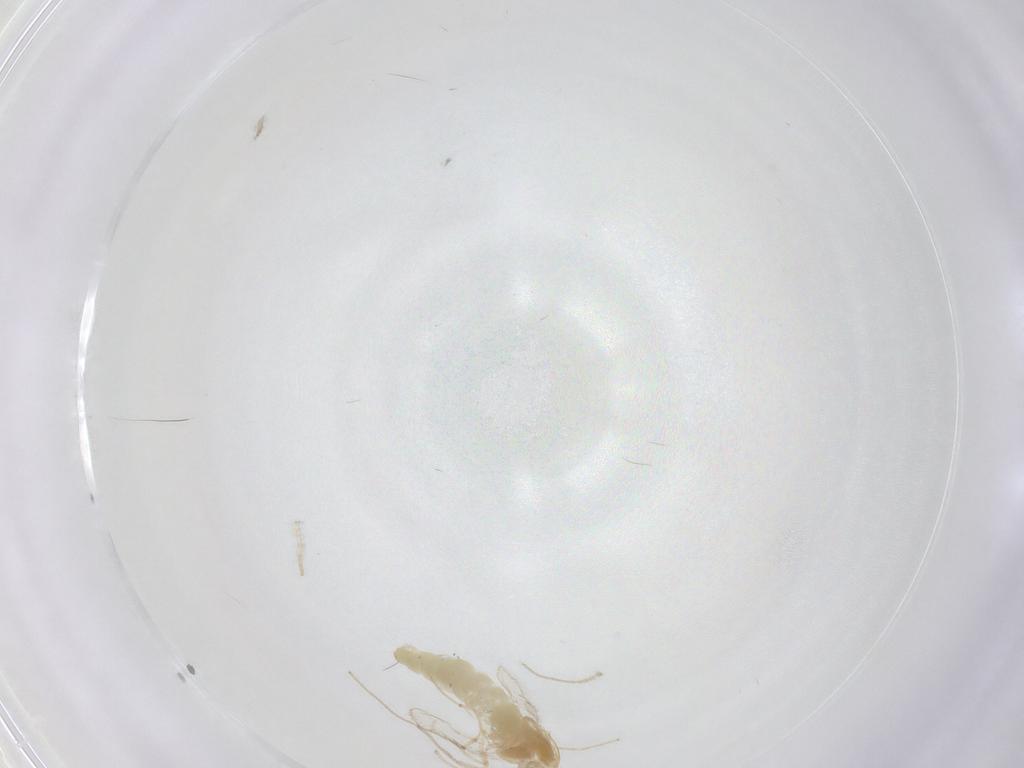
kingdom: Animalia
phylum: Arthropoda
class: Insecta
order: Diptera
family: Chironomidae
